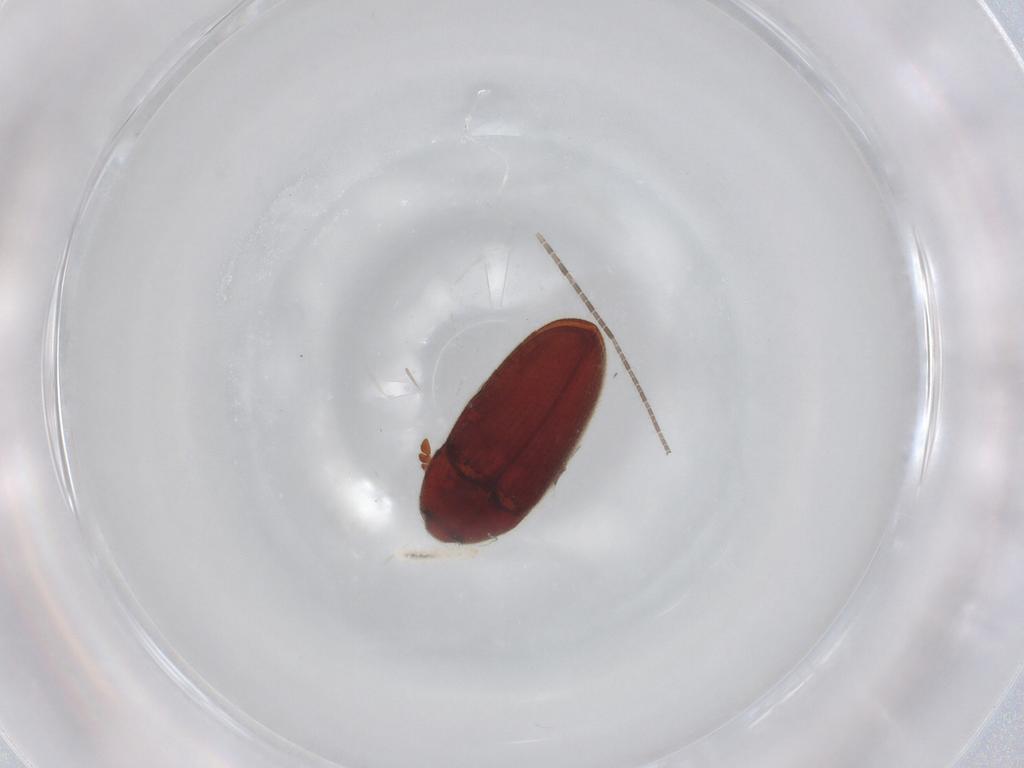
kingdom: Animalia
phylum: Arthropoda
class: Insecta
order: Coleoptera
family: Throscidae
